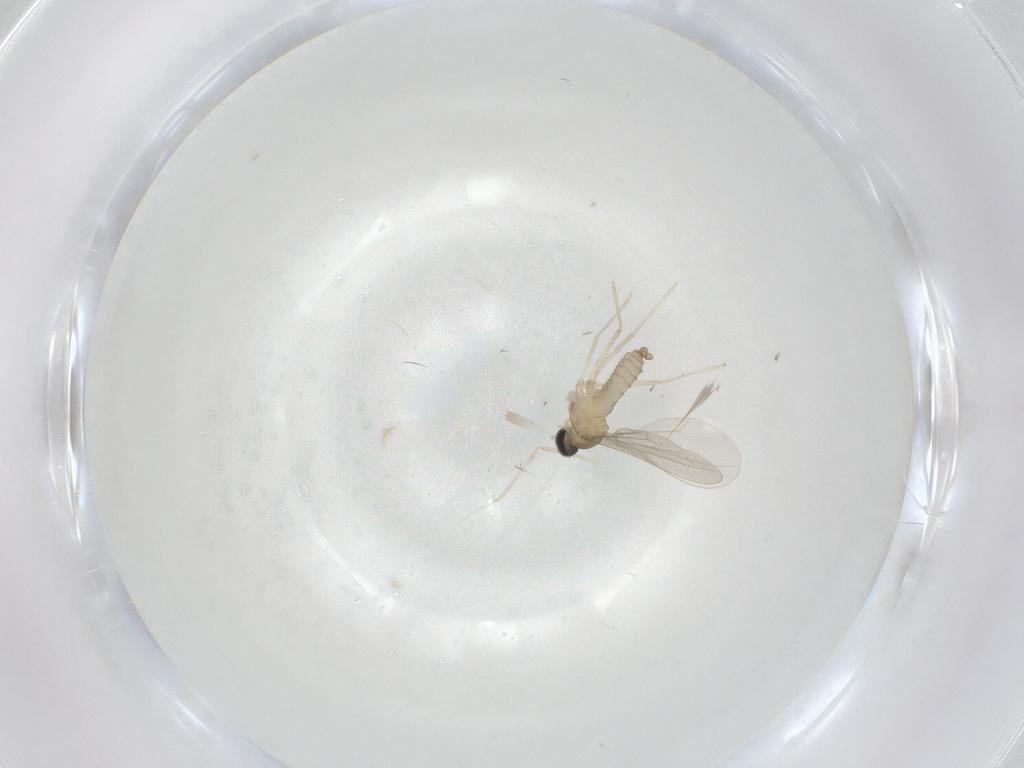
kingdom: Animalia
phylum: Arthropoda
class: Insecta
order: Diptera
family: Cecidomyiidae
